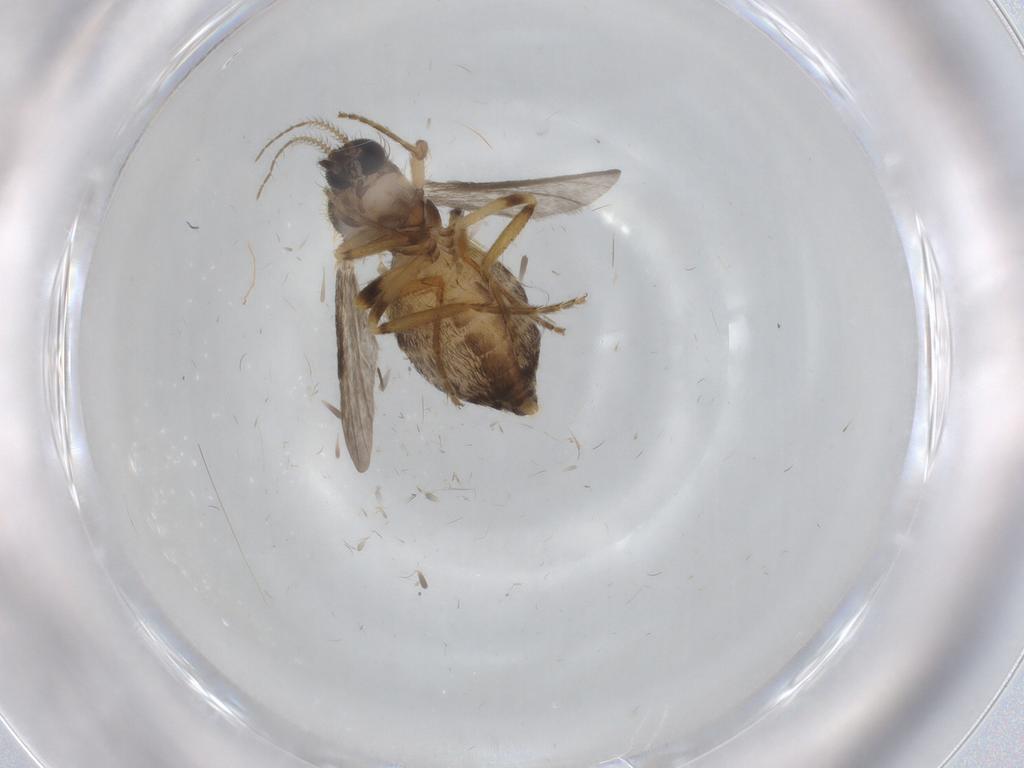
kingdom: Animalia
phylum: Arthropoda
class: Insecta
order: Diptera
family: Ceratopogonidae
